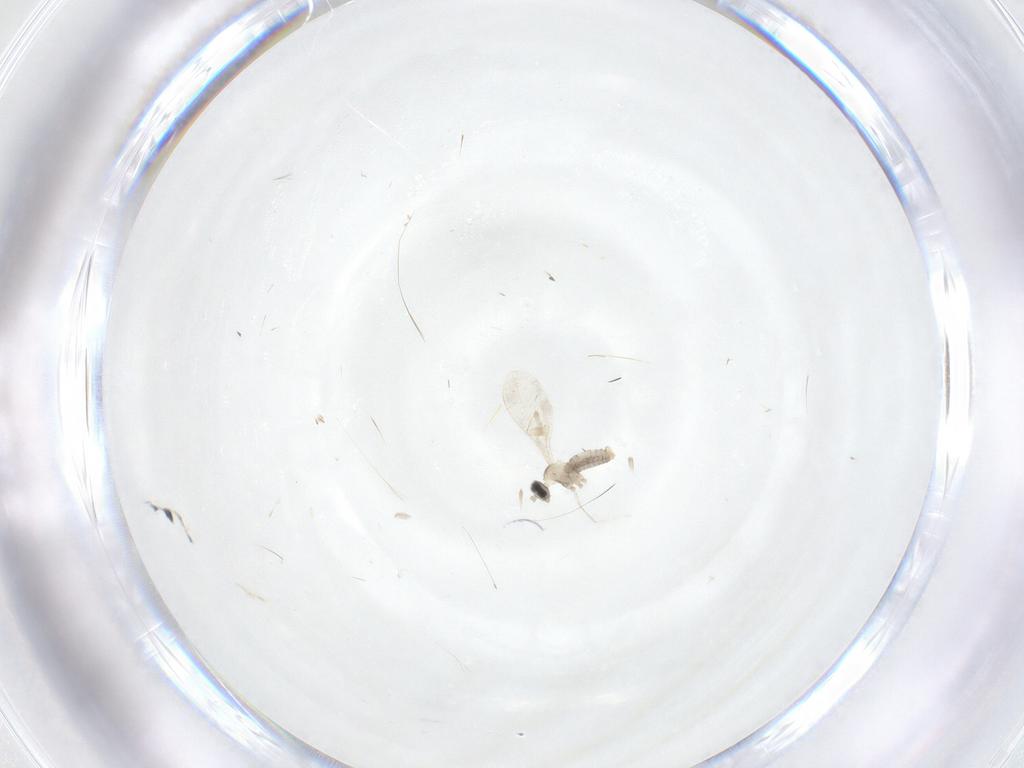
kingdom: Animalia
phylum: Arthropoda
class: Insecta
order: Diptera
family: Cecidomyiidae
